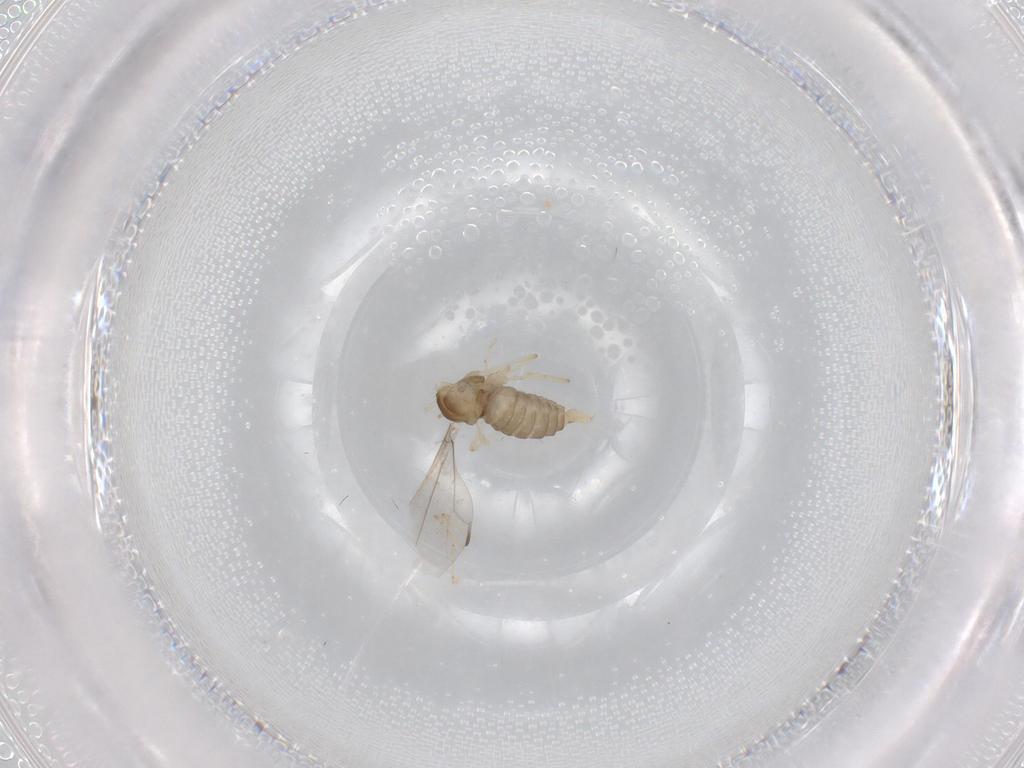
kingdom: Animalia
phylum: Arthropoda
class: Insecta
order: Diptera
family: Cecidomyiidae
